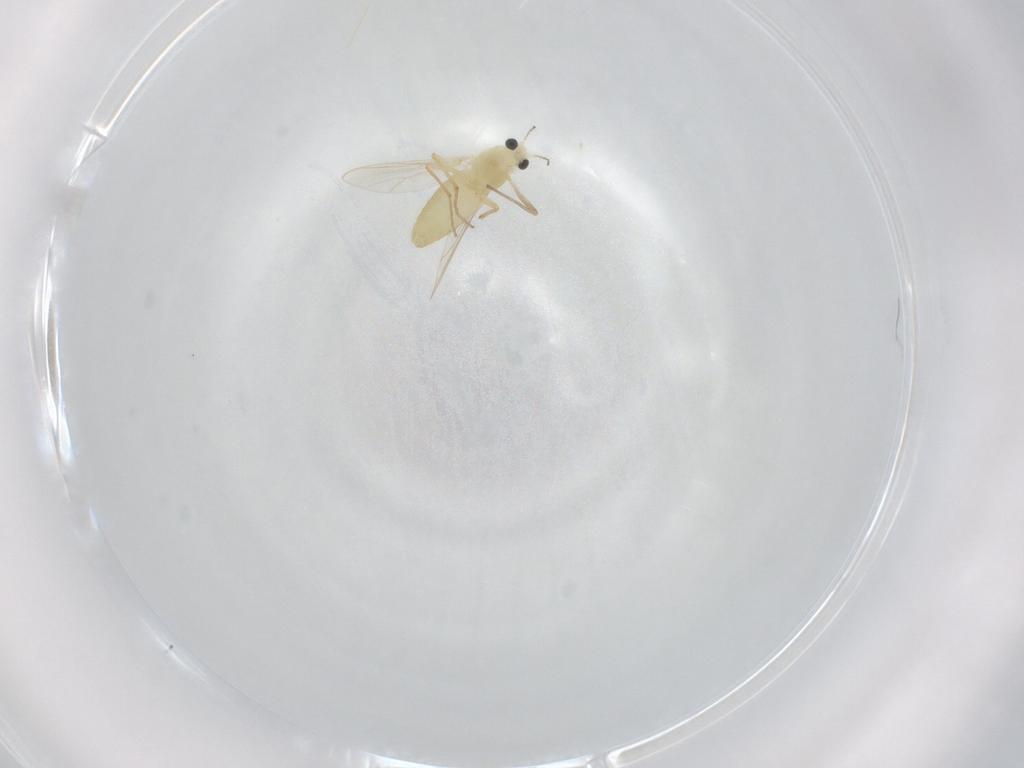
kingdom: Animalia
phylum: Arthropoda
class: Insecta
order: Diptera
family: Chironomidae
